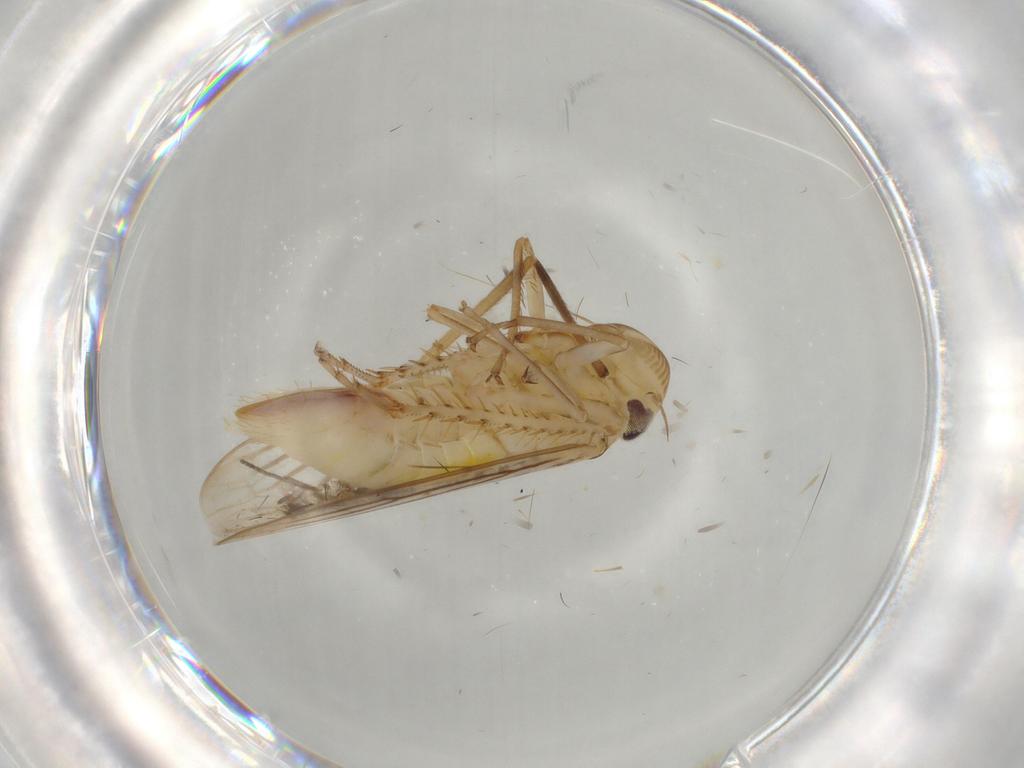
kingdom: Animalia
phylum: Arthropoda
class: Insecta
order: Hemiptera
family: Cicadellidae
